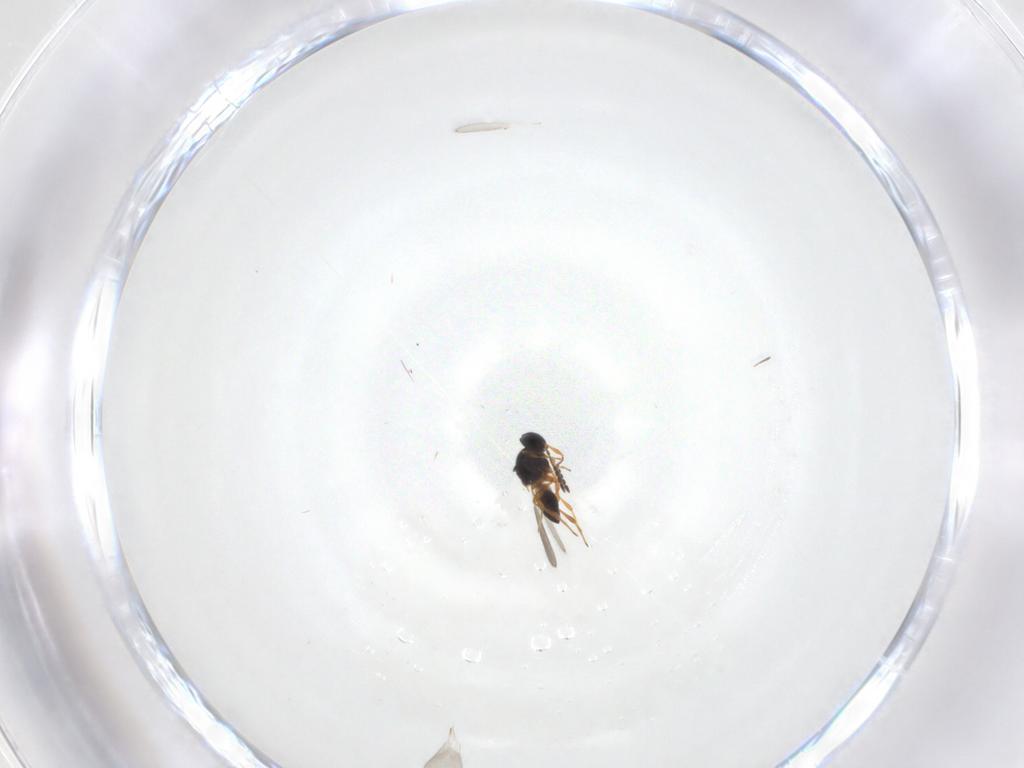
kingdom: Animalia
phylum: Arthropoda
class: Insecta
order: Hymenoptera
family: Platygastridae
